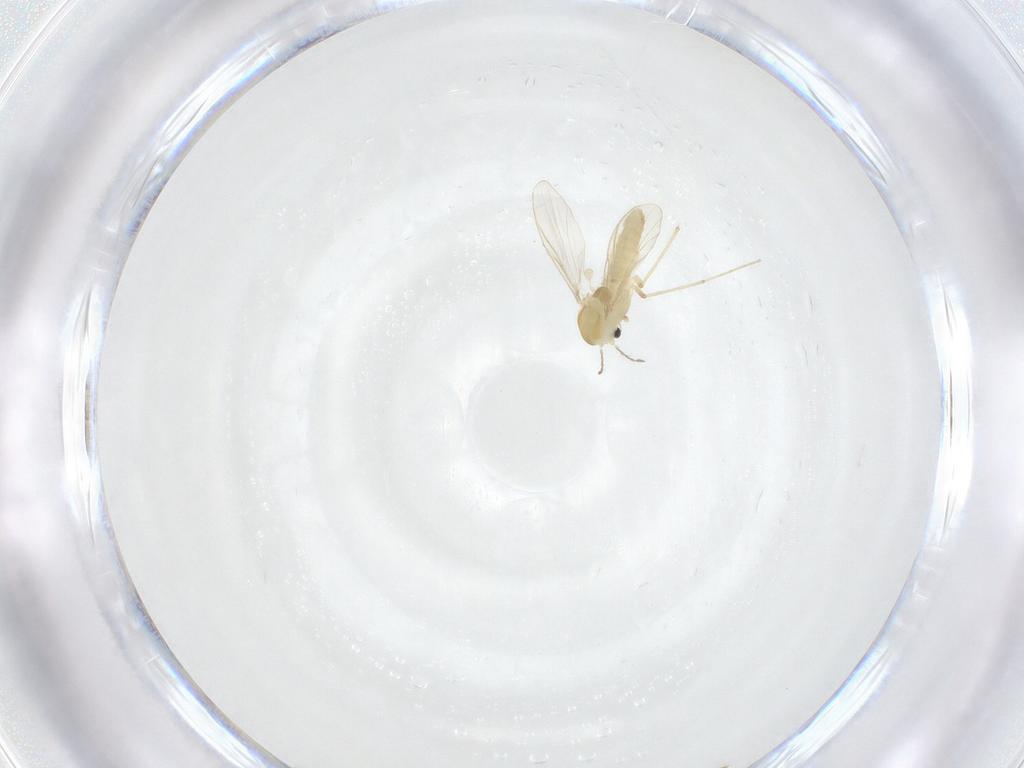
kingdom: Animalia
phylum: Arthropoda
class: Insecta
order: Diptera
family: Chironomidae
